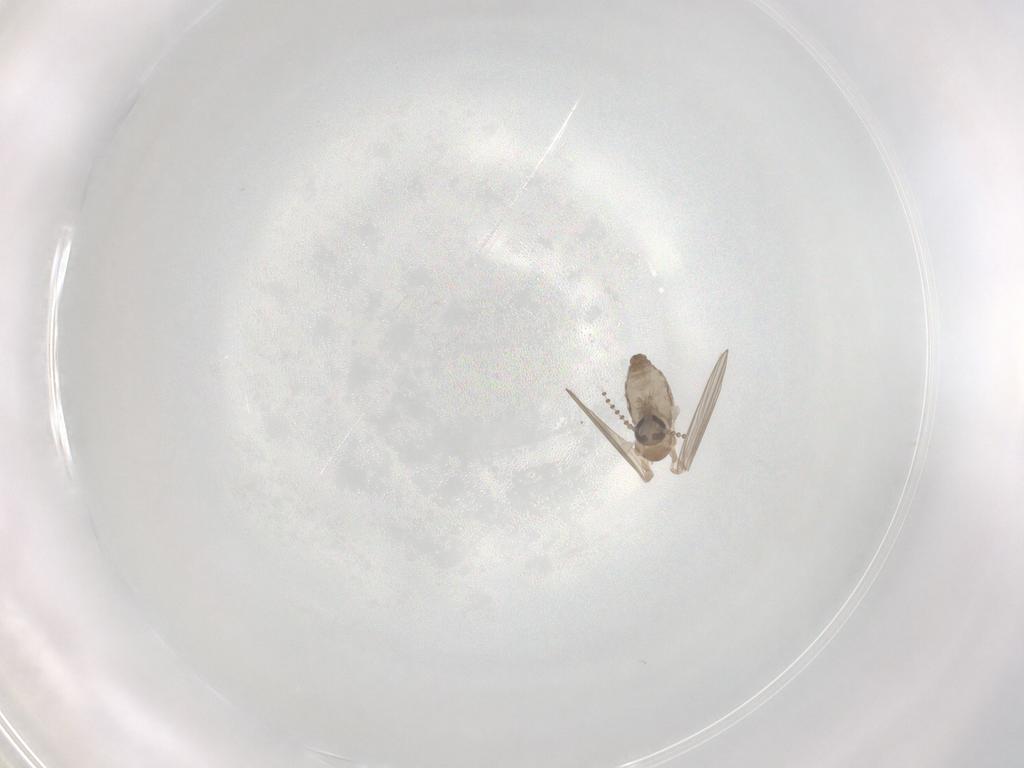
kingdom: Animalia
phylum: Arthropoda
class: Insecta
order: Diptera
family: Psychodidae
